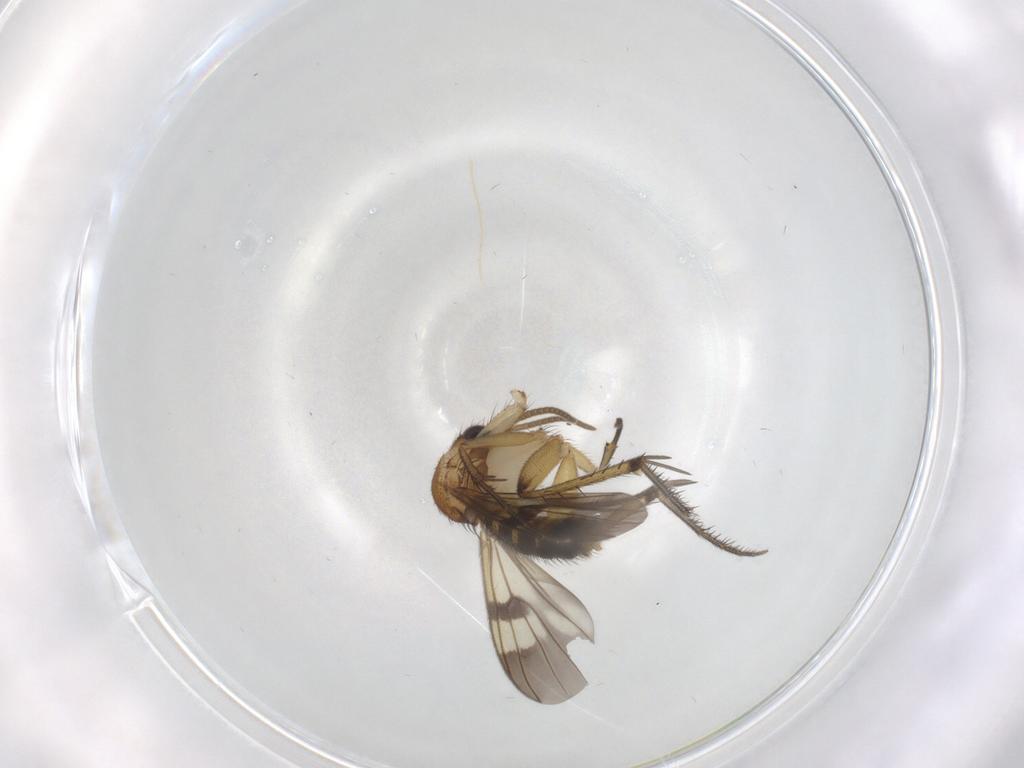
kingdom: Animalia
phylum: Arthropoda
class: Insecta
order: Diptera
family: Mycetophilidae
